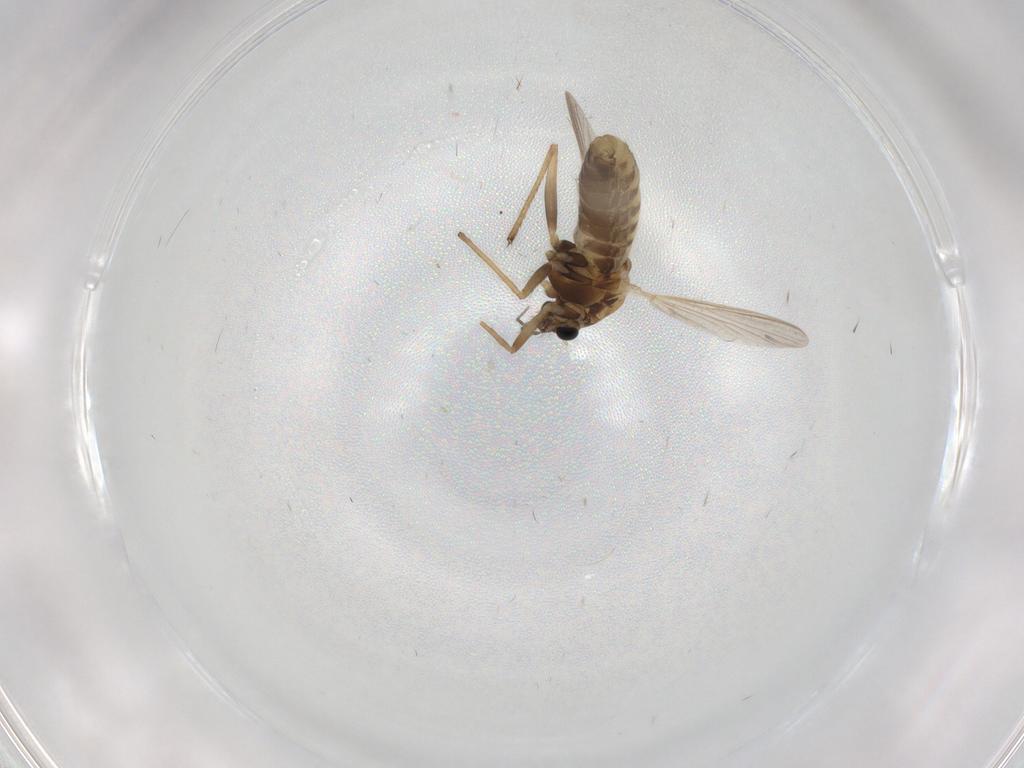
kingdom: Animalia
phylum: Arthropoda
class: Insecta
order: Diptera
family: Chironomidae
